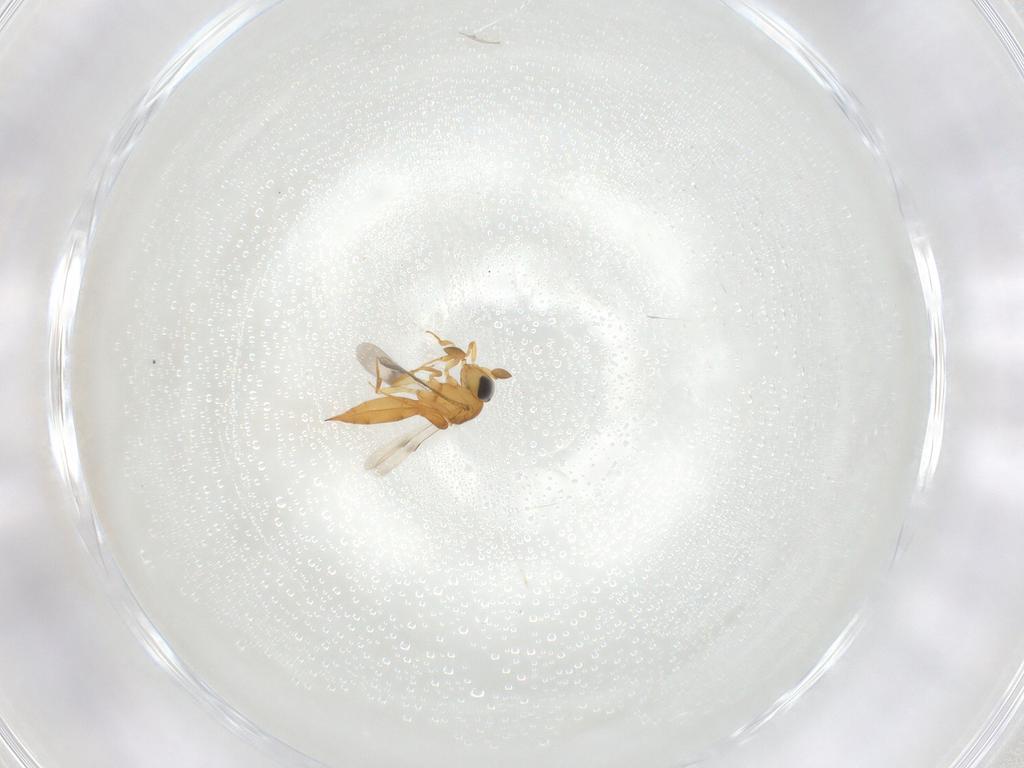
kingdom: Animalia
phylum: Arthropoda
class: Insecta
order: Hymenoptera
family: Scelionidae
